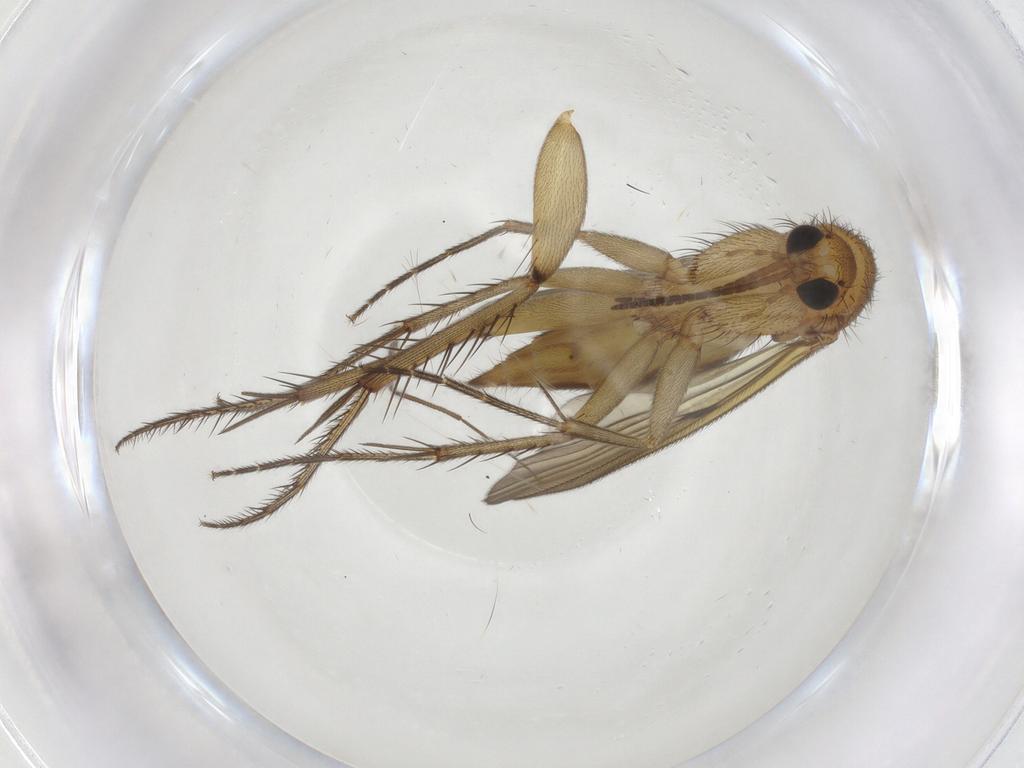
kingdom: Animalia
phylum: Arthropoda
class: Insecta
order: Diptera
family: Mycetophilidae
